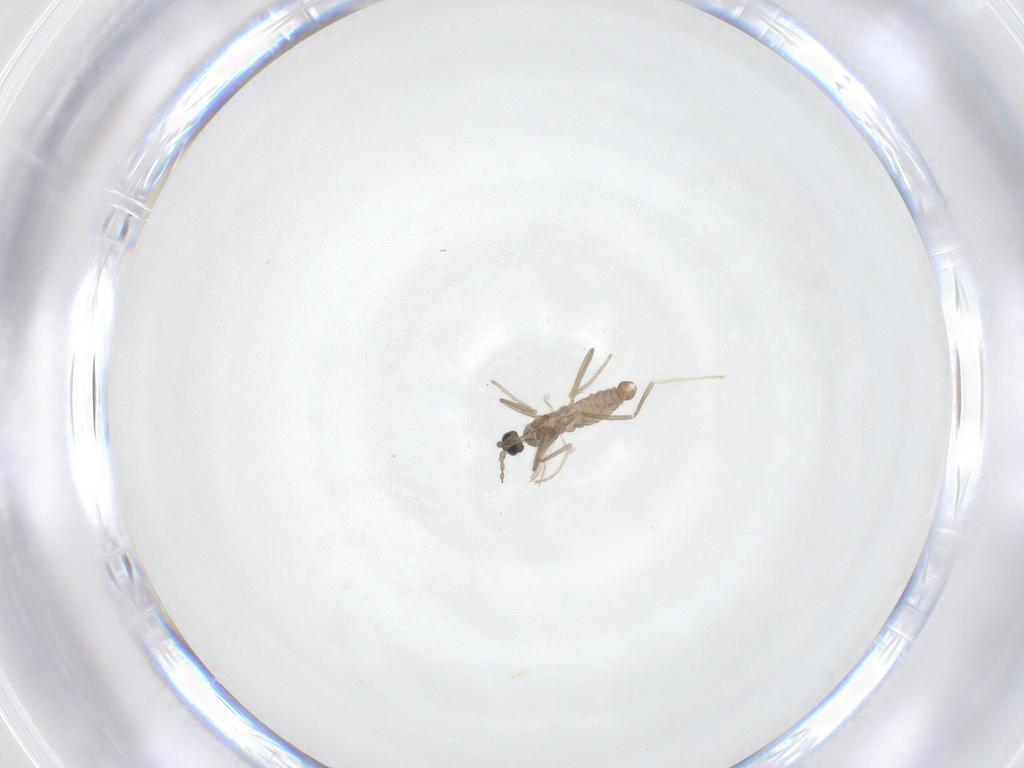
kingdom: Animalia
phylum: Arthropoda
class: Insecta
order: Diptera
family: Cecidomyiidae
